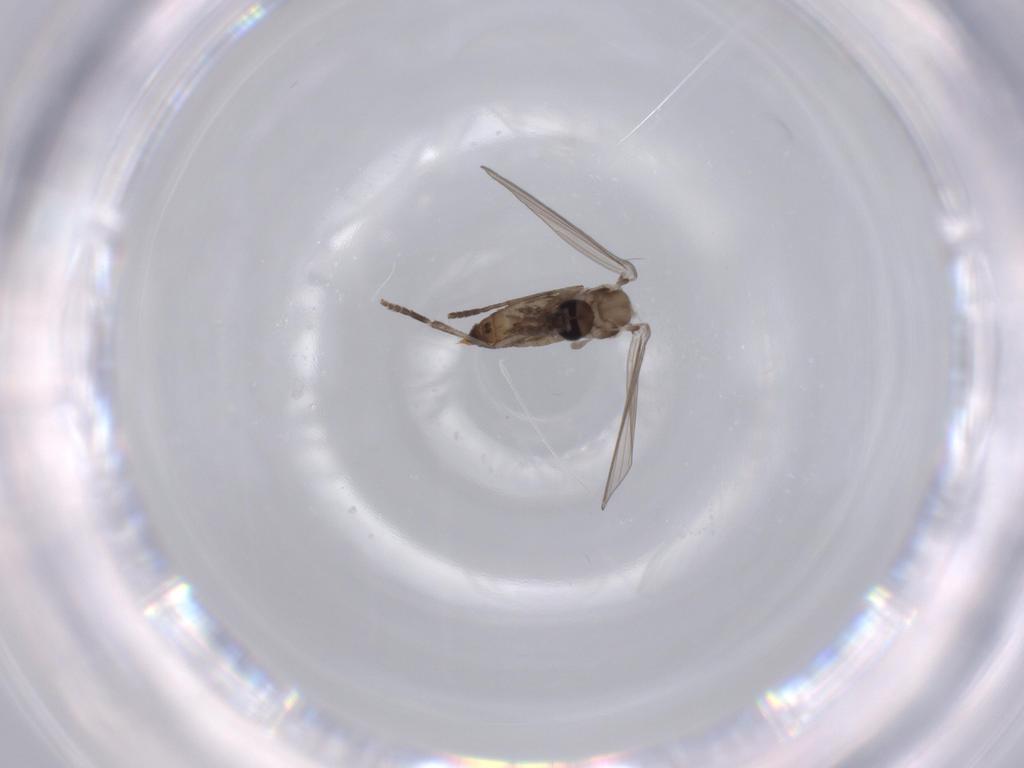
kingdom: Animalia
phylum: Arthropoda
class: Insecta
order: Diptera
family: Psychodidae
